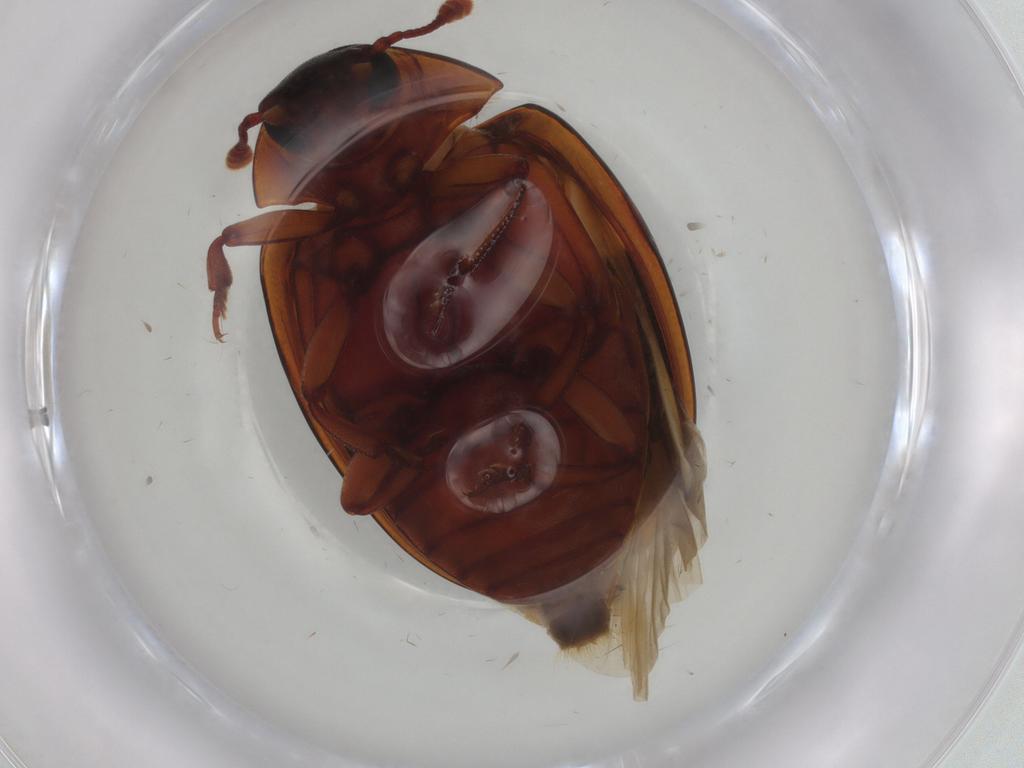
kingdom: Animalia
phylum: Arthropoda
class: Insecta
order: Coleoptera
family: Zopheridae
